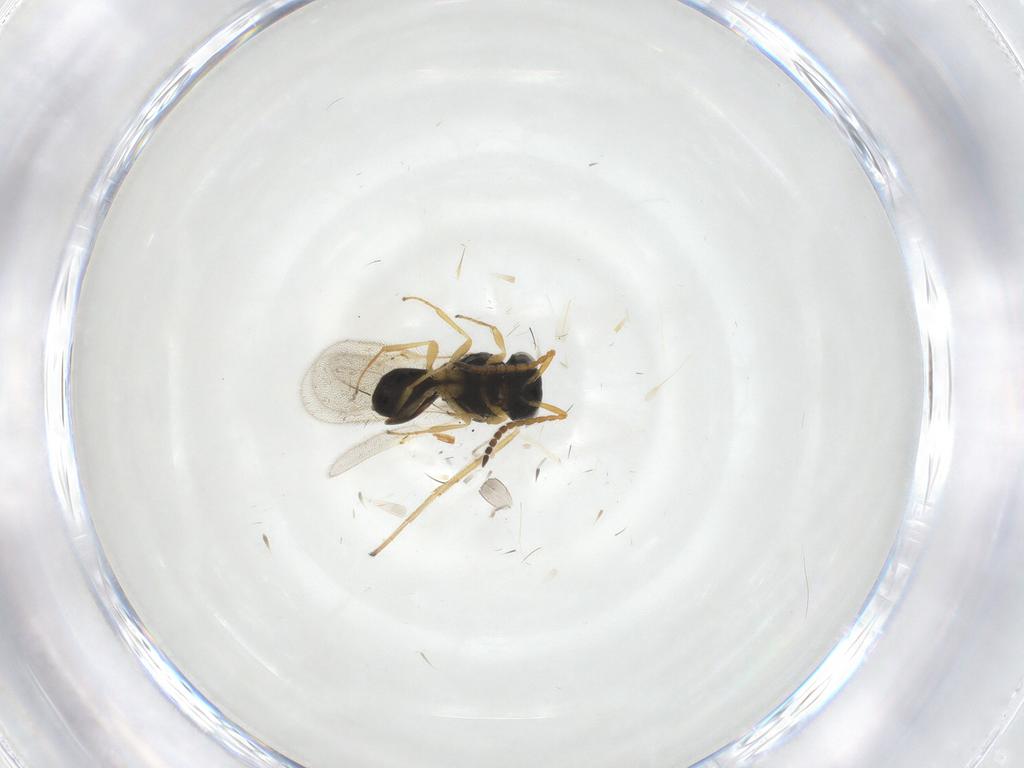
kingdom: Animalia
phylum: Arthropoda
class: Insecta
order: Hymenoptera
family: Scelionidae
